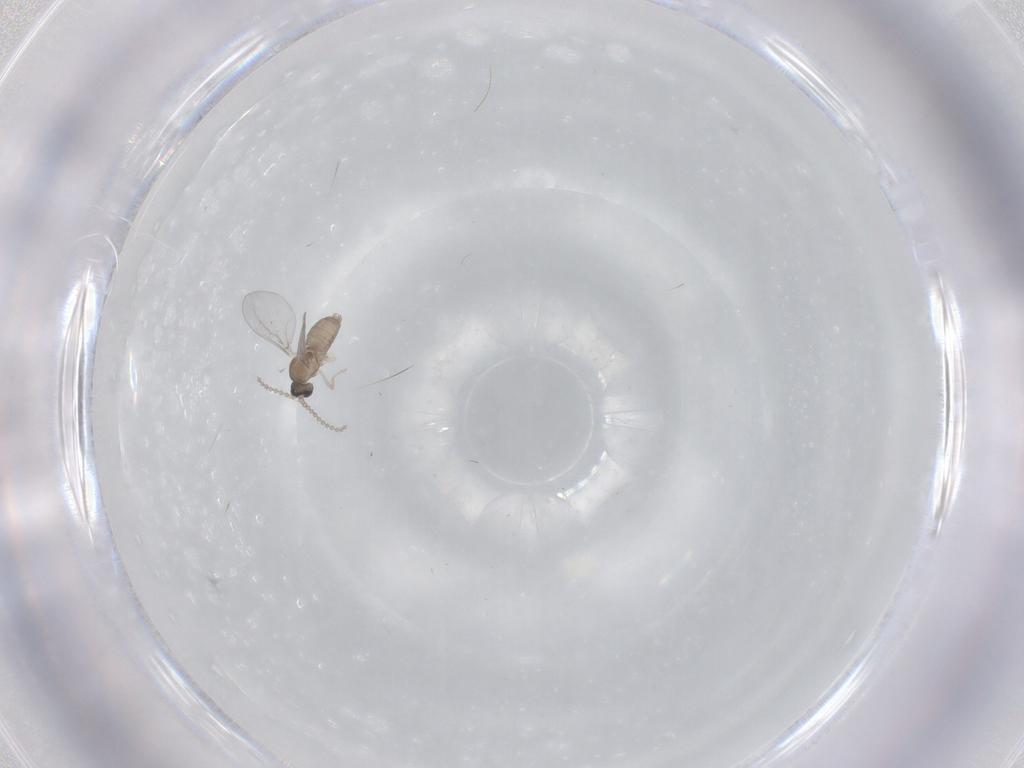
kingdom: Animalia
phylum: Arthropoda
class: Insecta
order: Diptera
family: Cecidomyiidae
